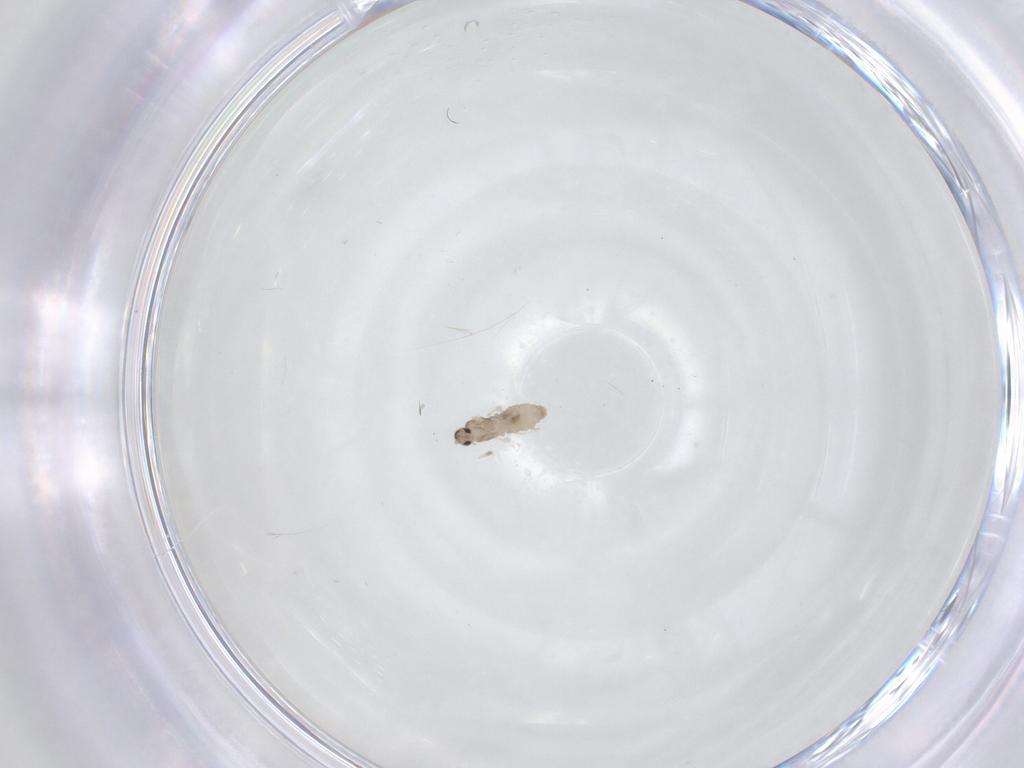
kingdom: Animalia
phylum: Arthropoda
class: Insecta
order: Diptera
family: Cecidomyiidae
